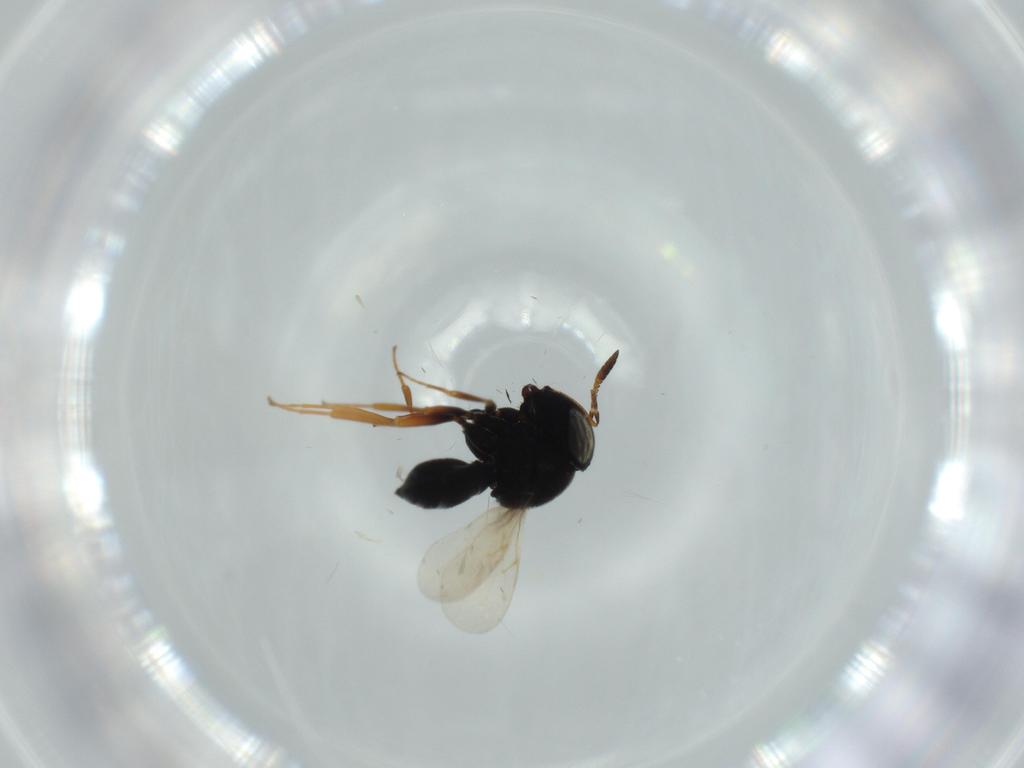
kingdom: Animalia
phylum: Arthropoda
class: Insecta
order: Hymenoptera
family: Scelionidae
